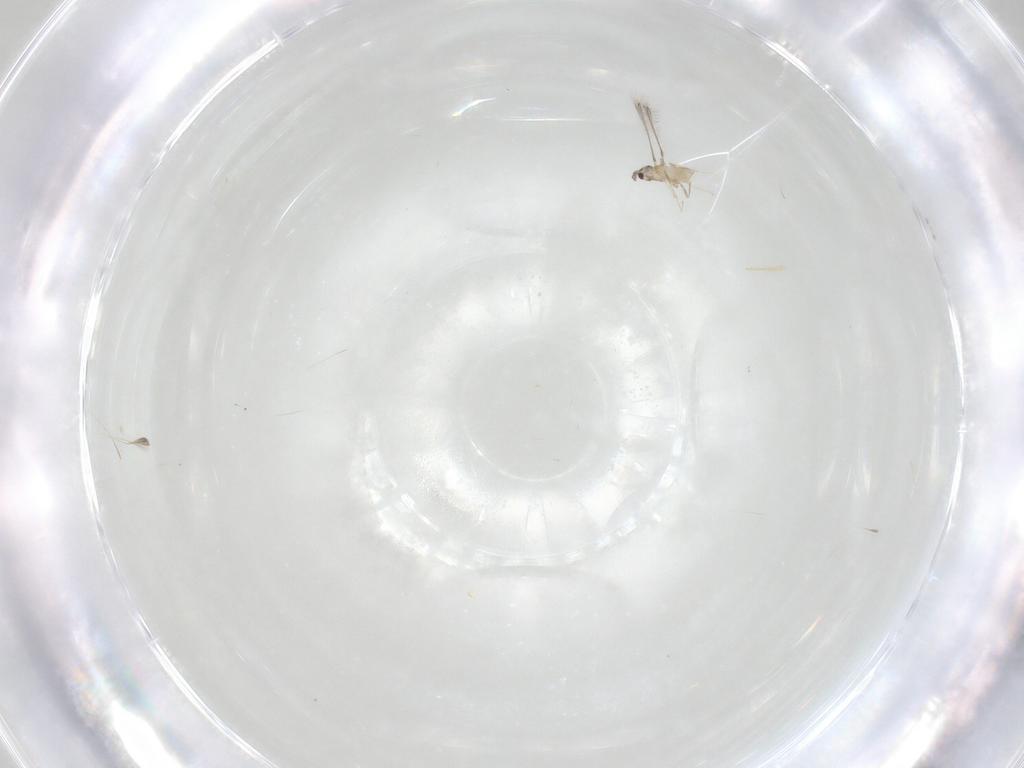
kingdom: Animalia
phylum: Arthropoda
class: Insecta
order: Hymenoptera
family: Mymaridae
